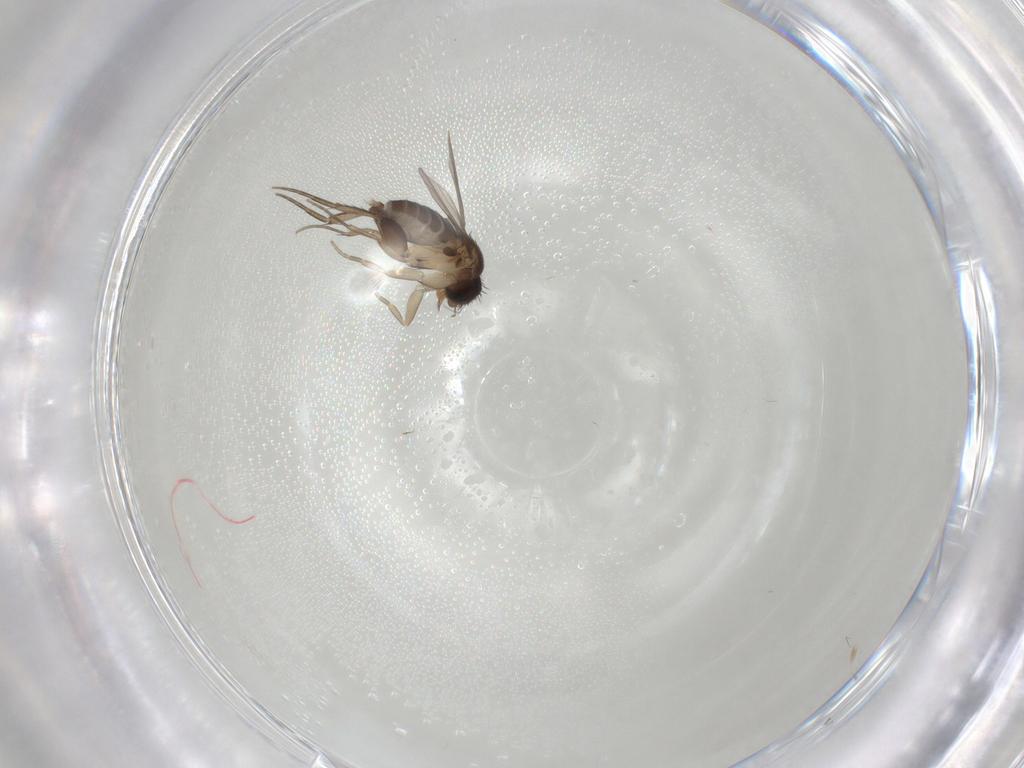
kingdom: Animalia
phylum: Arthropoda
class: Insecta
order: Diptera
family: Phoridae
